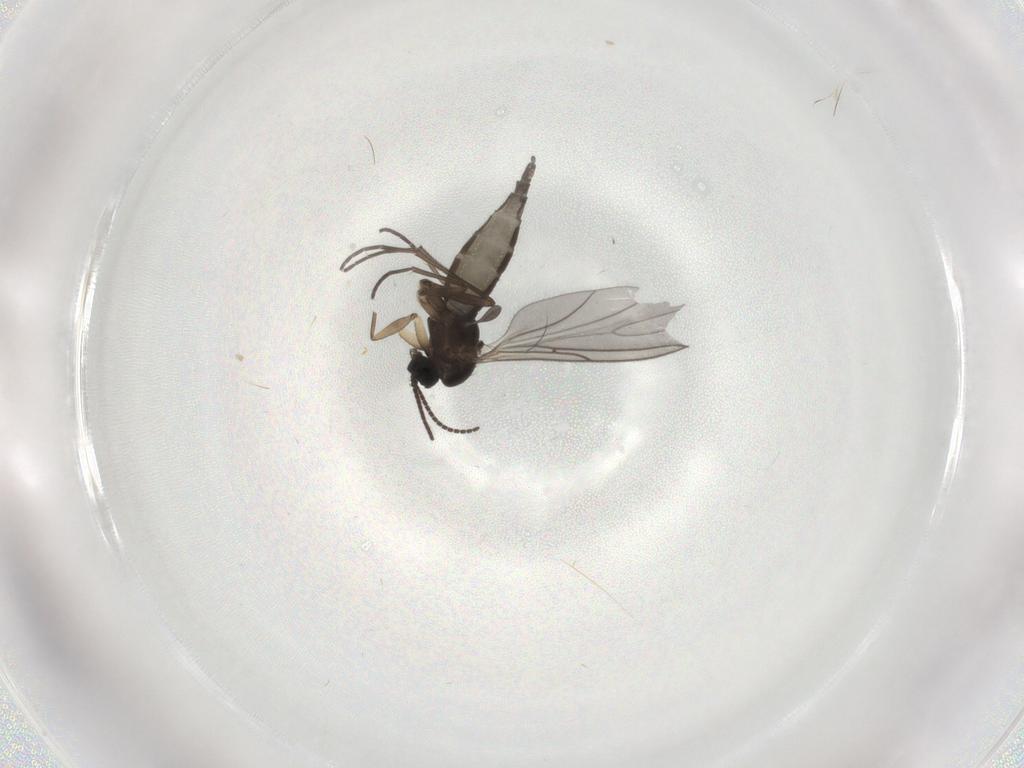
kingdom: Animalia
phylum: Arthropoda
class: Insecta
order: Diptera
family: Sciaridae
